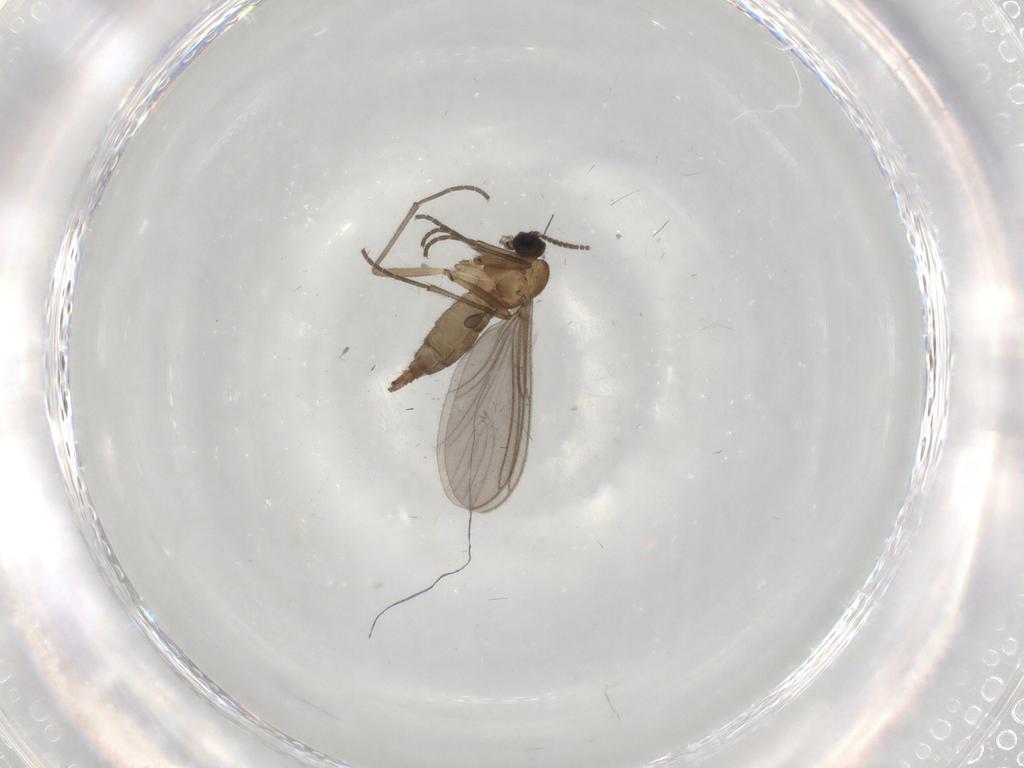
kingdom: Animalia
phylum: Arthropoda
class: Insecta
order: Diptera
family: Sciaridae
